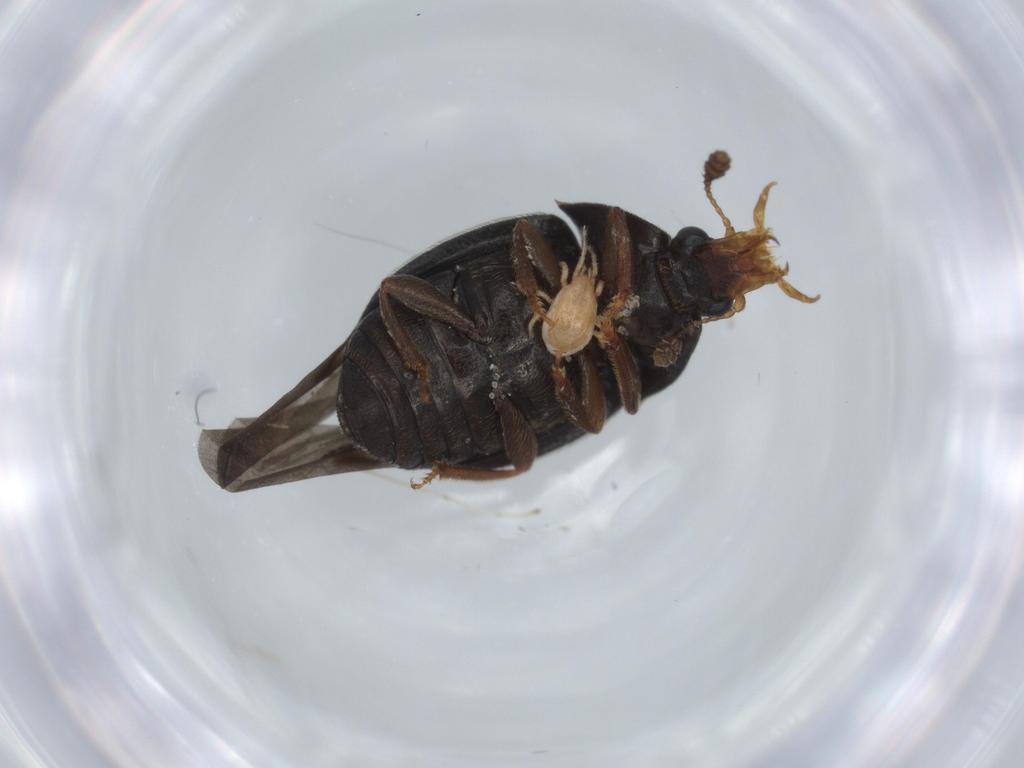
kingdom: Animalia
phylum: Arthropoda
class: Arachnida
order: Mesostigmata
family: Blattisociidae
